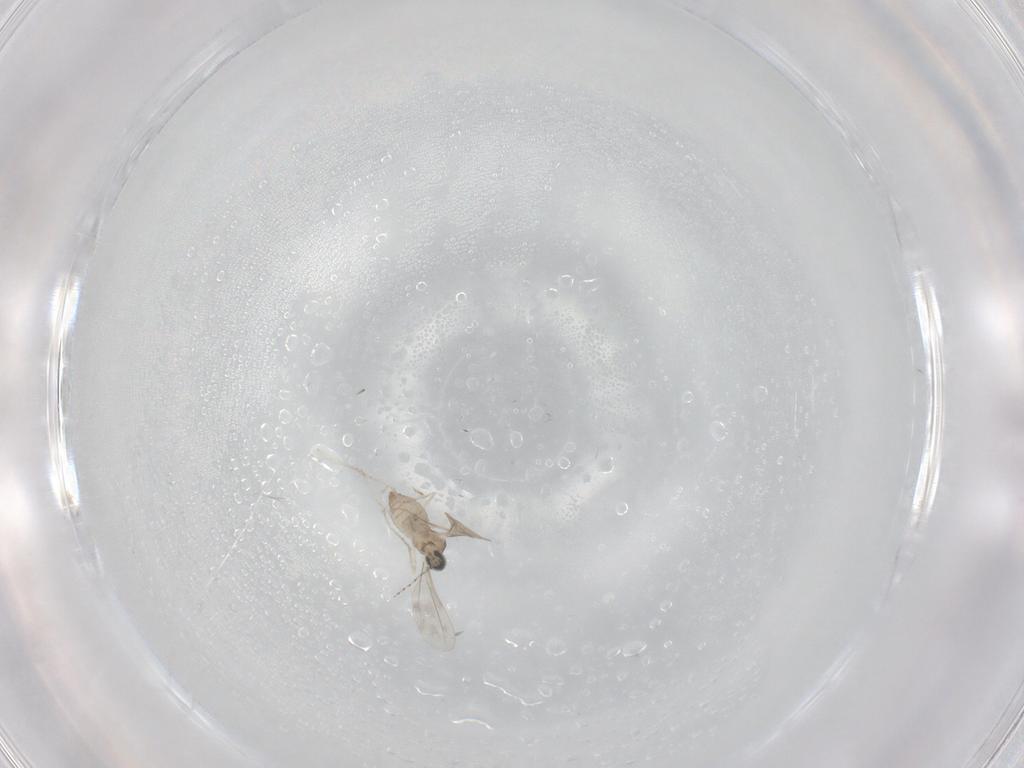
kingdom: Animalia
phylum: Arthropoda
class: Insecta
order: Diptera
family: Cecidomyiidae
